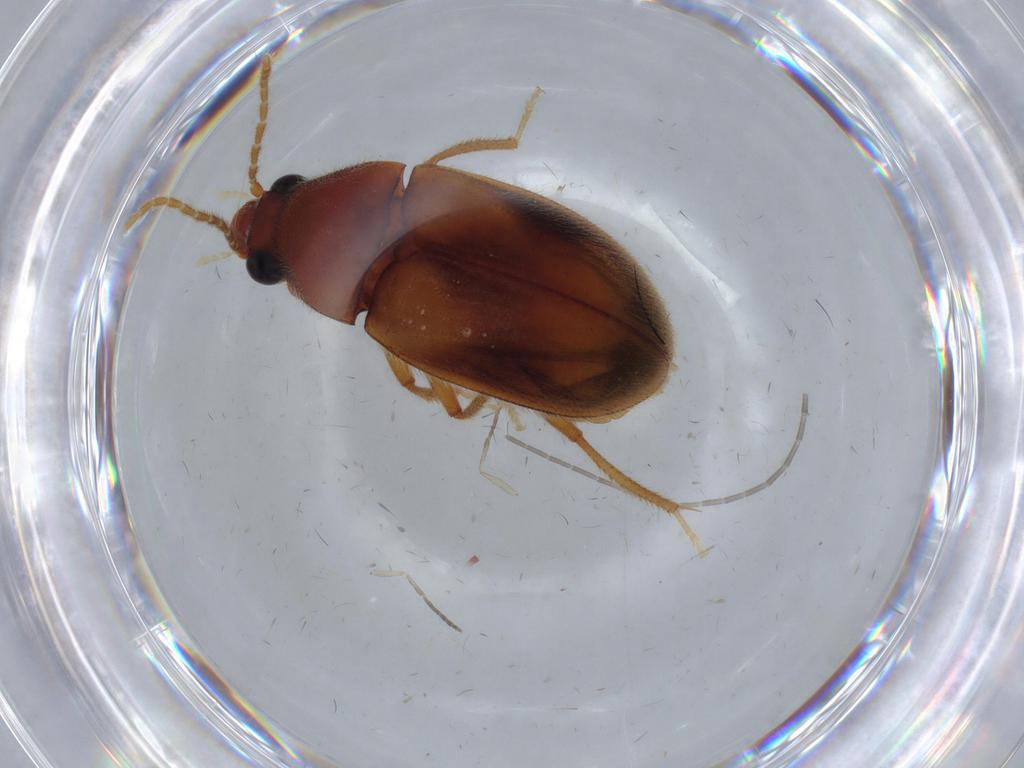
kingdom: Animalia
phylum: Arthropoda
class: Insecta
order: Coleoptera
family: Ptilodactylidae
